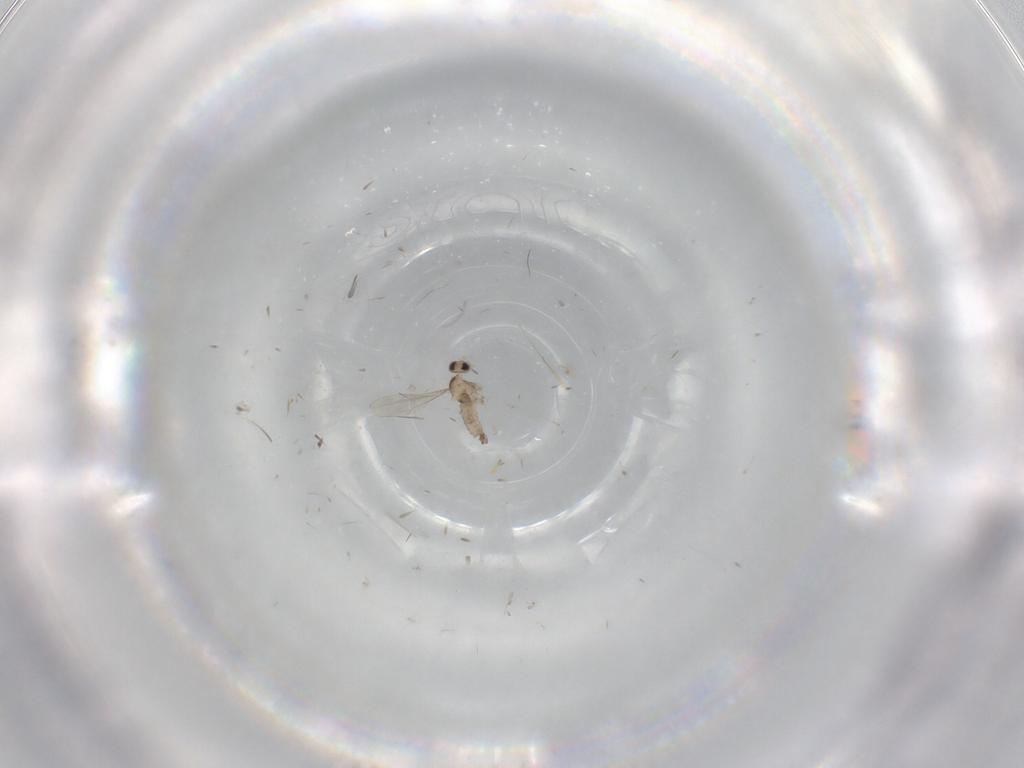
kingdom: Animalia
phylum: Arthropoda
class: Insecta
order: Diptera
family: Cecidomyiidae
